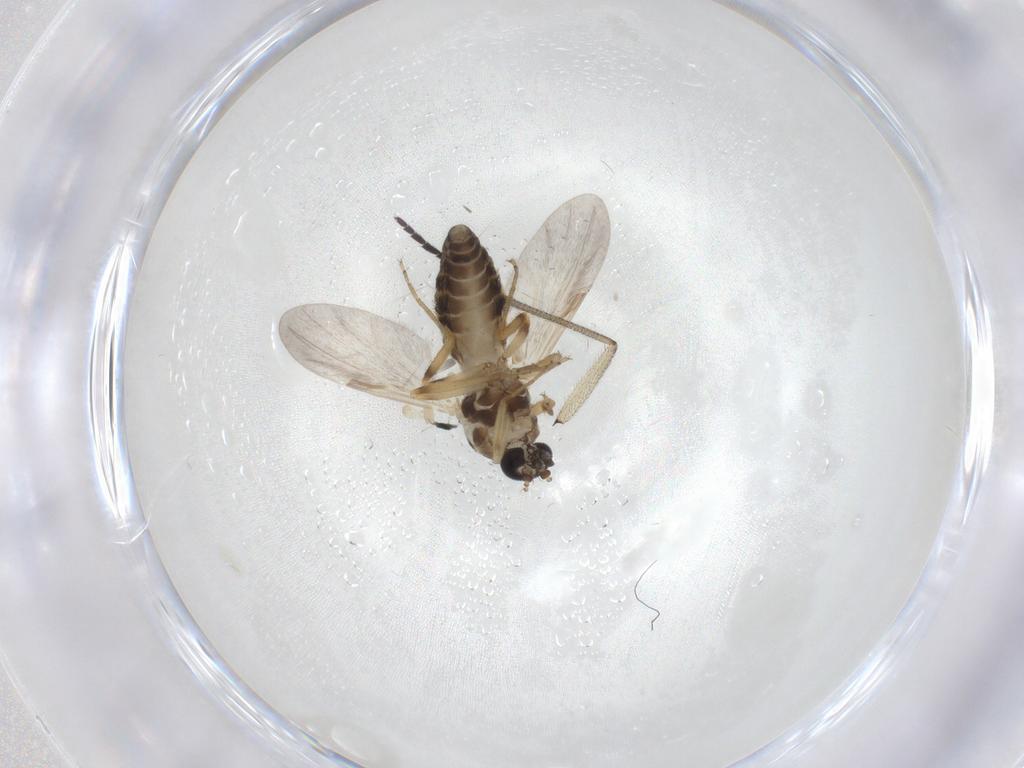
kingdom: Animalia
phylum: Arthropoda
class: Insecta
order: Diptera
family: Ceratopogonidae
